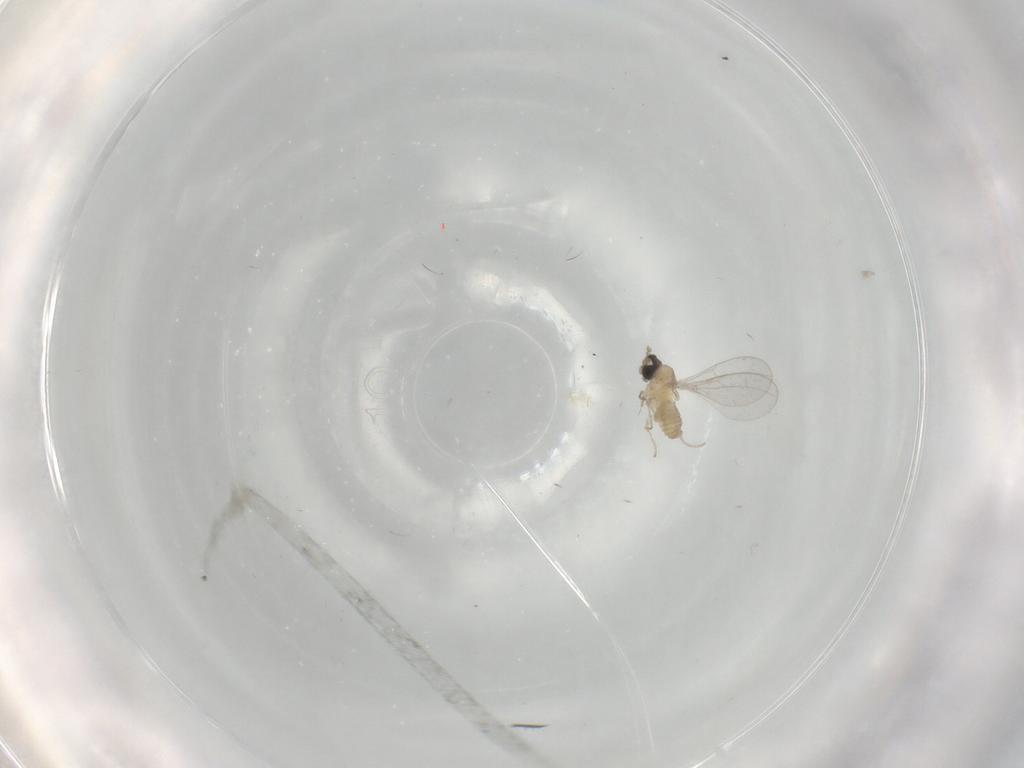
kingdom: Animalia
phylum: Arthropoda
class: Insecta
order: Diptera
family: Cecidomyiidae
